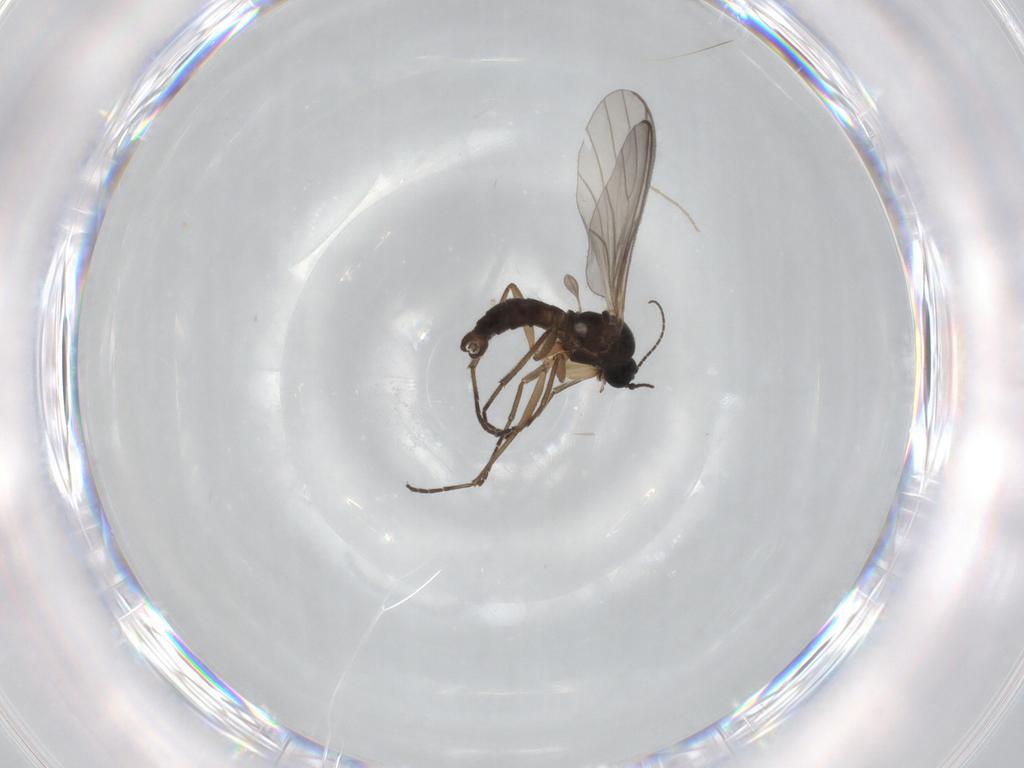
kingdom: Animalia
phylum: Arthropoda
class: Insecta
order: Diptera
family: Sciaridae
